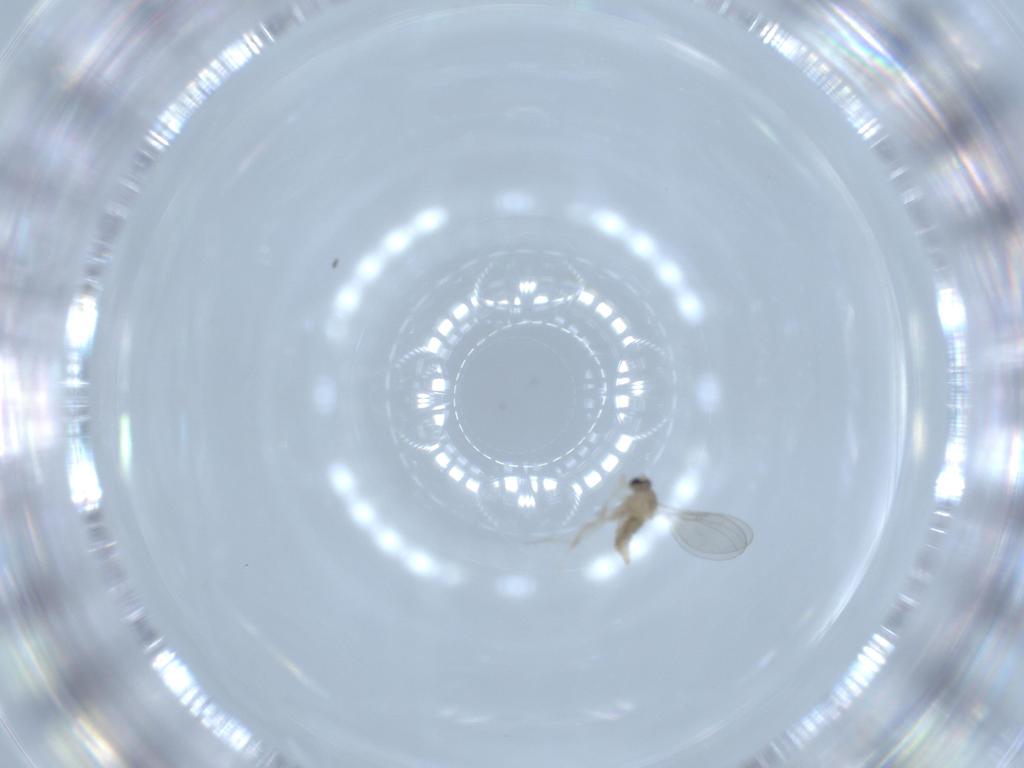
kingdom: Animalia
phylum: Arthropoda
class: Insecta
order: Diptera
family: Cecidomyiidae
